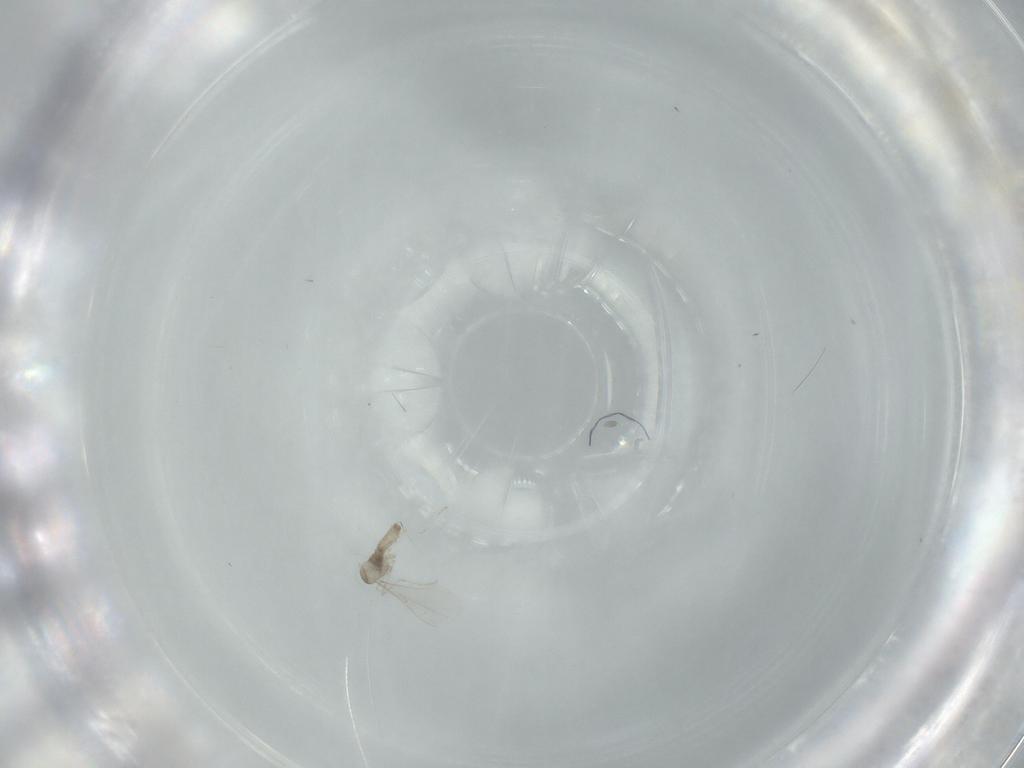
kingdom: Animalia
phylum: Arthropoda
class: Insecta
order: Diptera
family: Cecidomyiidae
